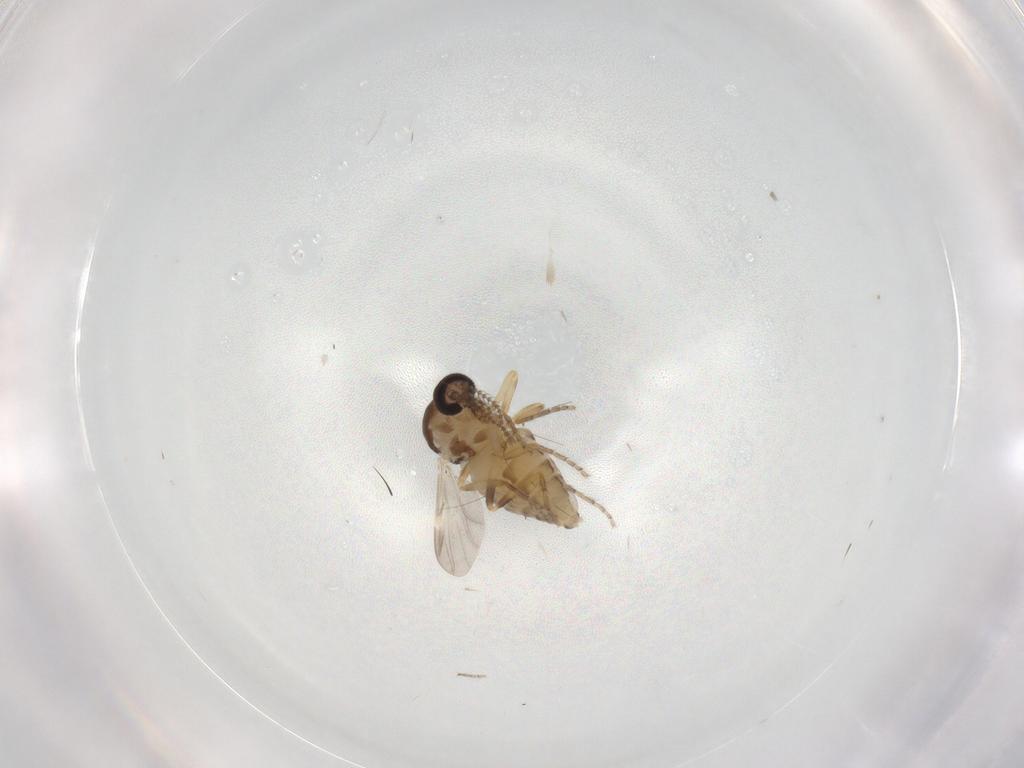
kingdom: Animalia
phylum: Arthropoda
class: Insecta
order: Diptera
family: Ceratopogonidae
